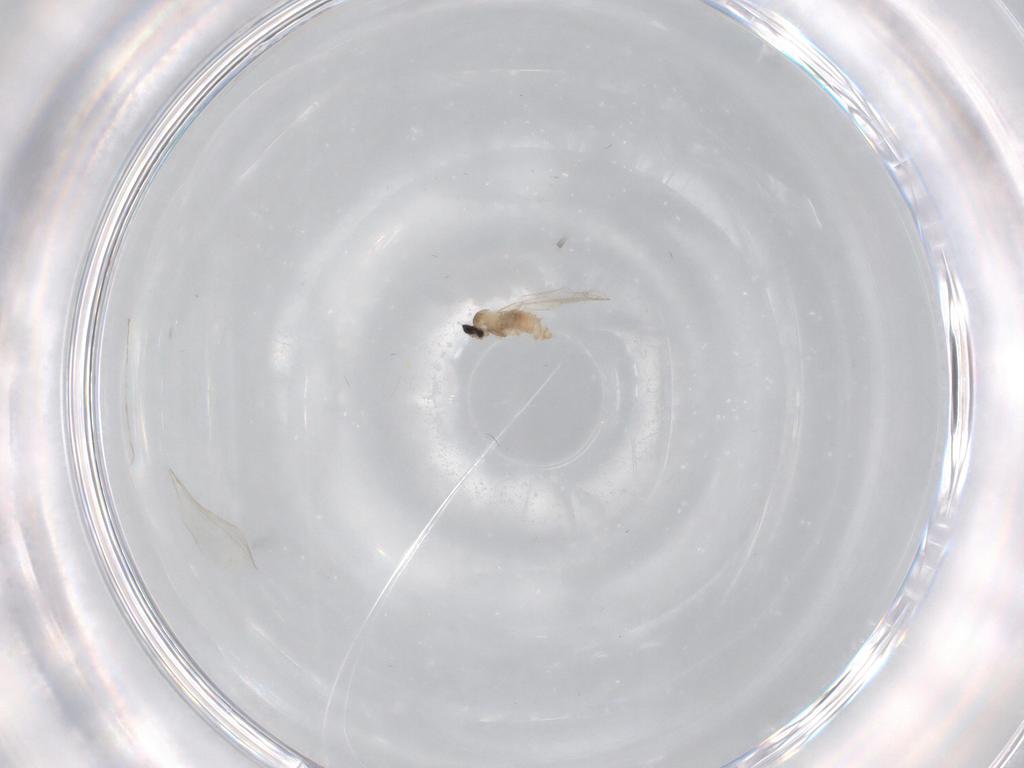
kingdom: Animalia
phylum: Arthropoda
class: Insecta
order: Diptera
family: Cecidomyiidae
